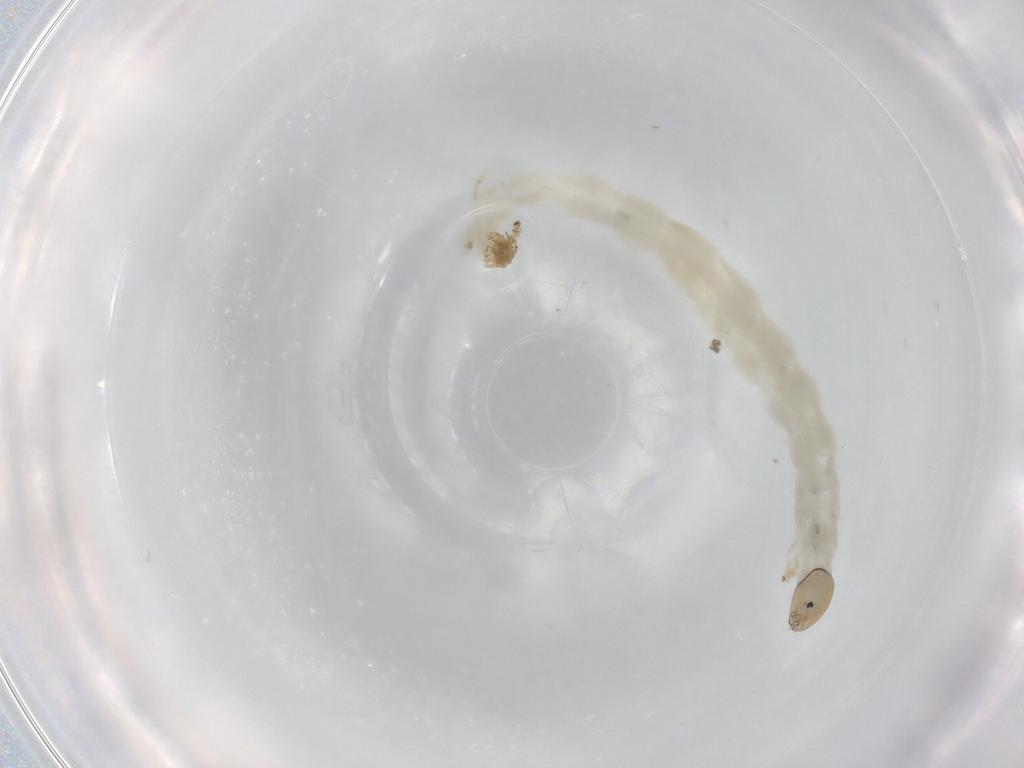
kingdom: Animalia
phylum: Arthropoda
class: Insecta
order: Diptera
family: Chironomidae
